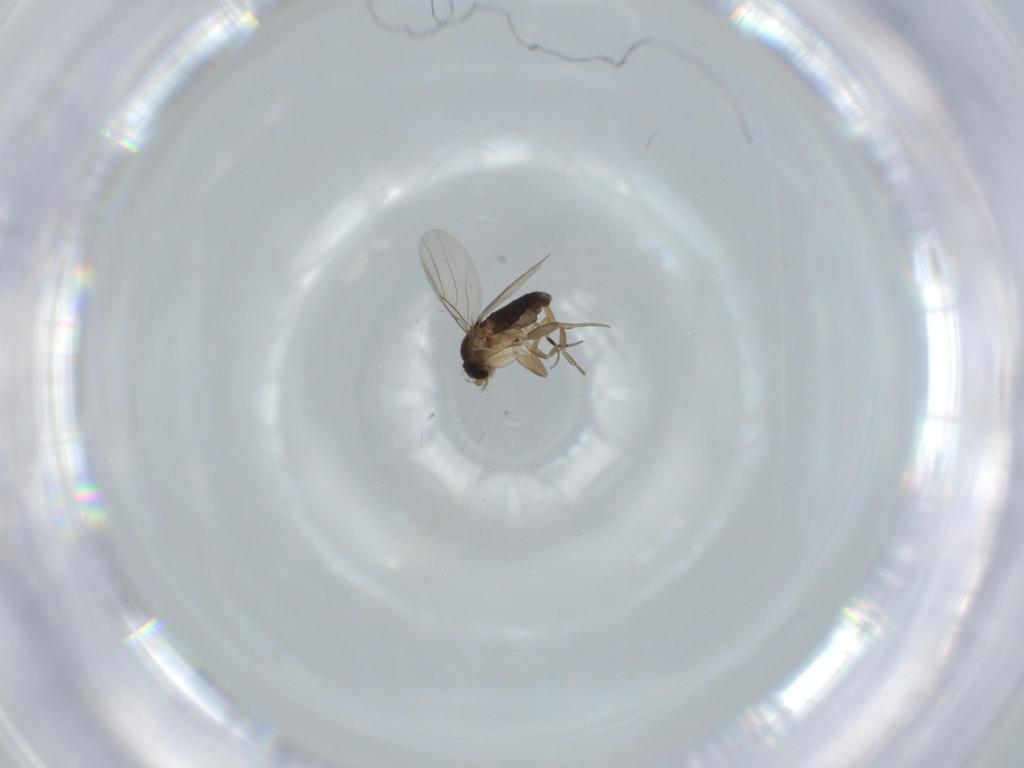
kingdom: Animalia
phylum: Arthropoda
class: Insecta
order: Diptera
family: Phoridae
